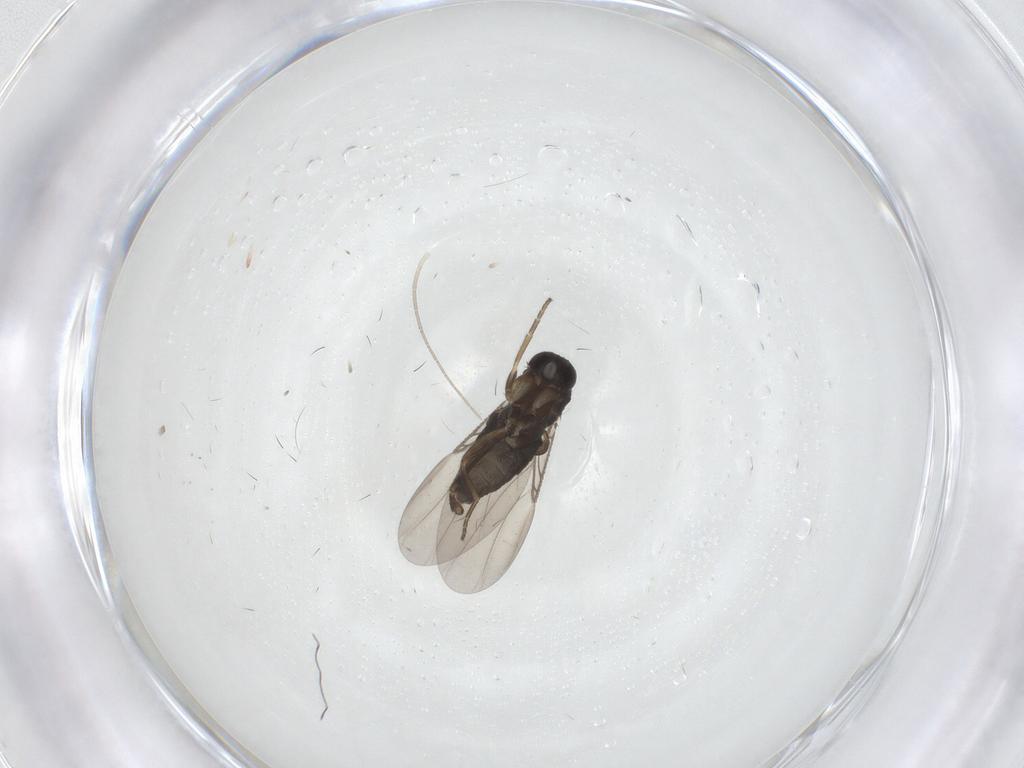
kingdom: Animalia
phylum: Arthropoda
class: Insecta
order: Diptera
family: Phoridae
